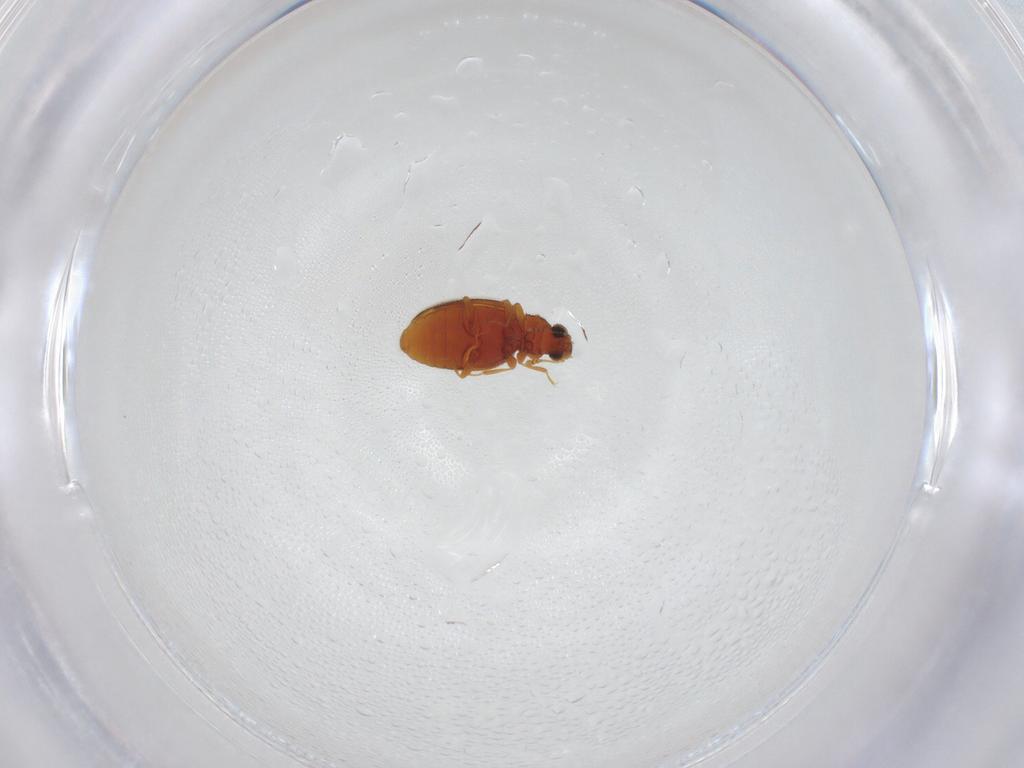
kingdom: Animalia
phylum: Arthropoda
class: Insecta
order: Coleoptera
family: Latridiidae
